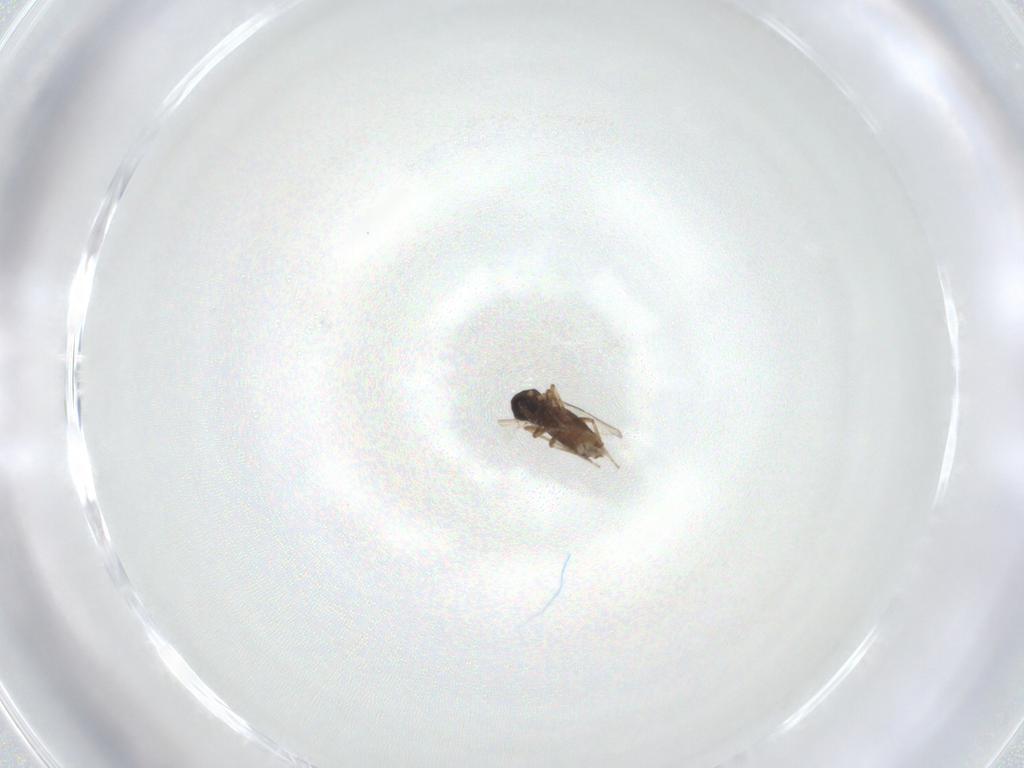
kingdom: Animalia
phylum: Arthropoda
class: Insecta
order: Diptera
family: Ceratopogonidae
